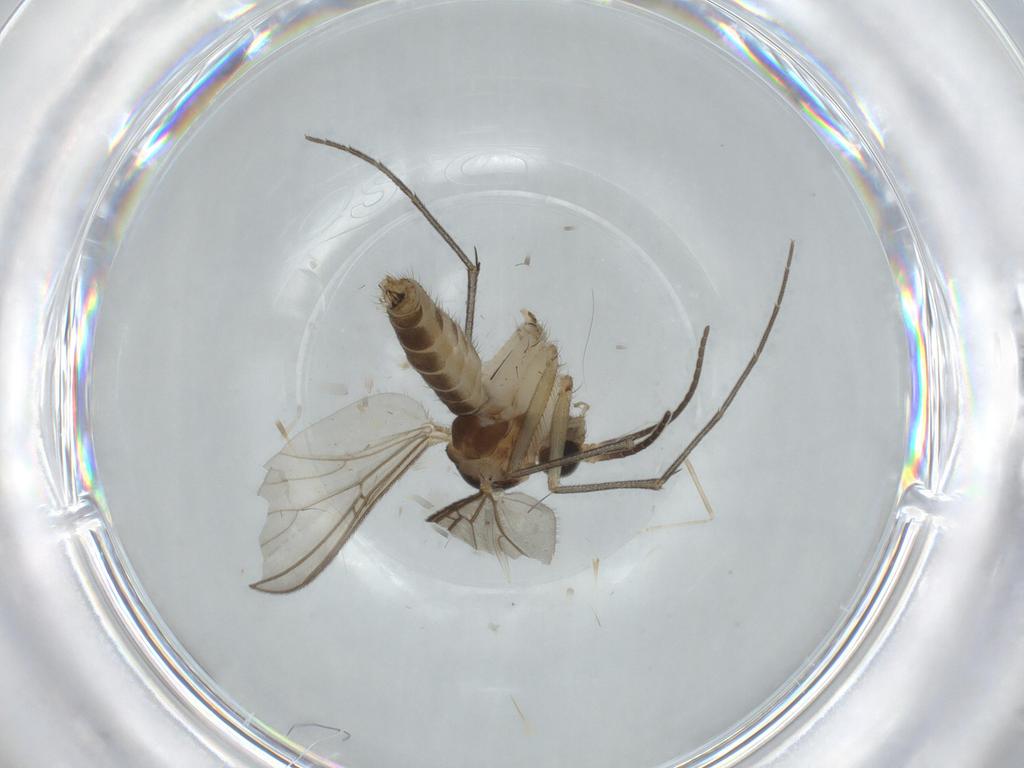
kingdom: Animalia
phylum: Arthropoda
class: Insecta
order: Diptera
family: Mycetophilidae
